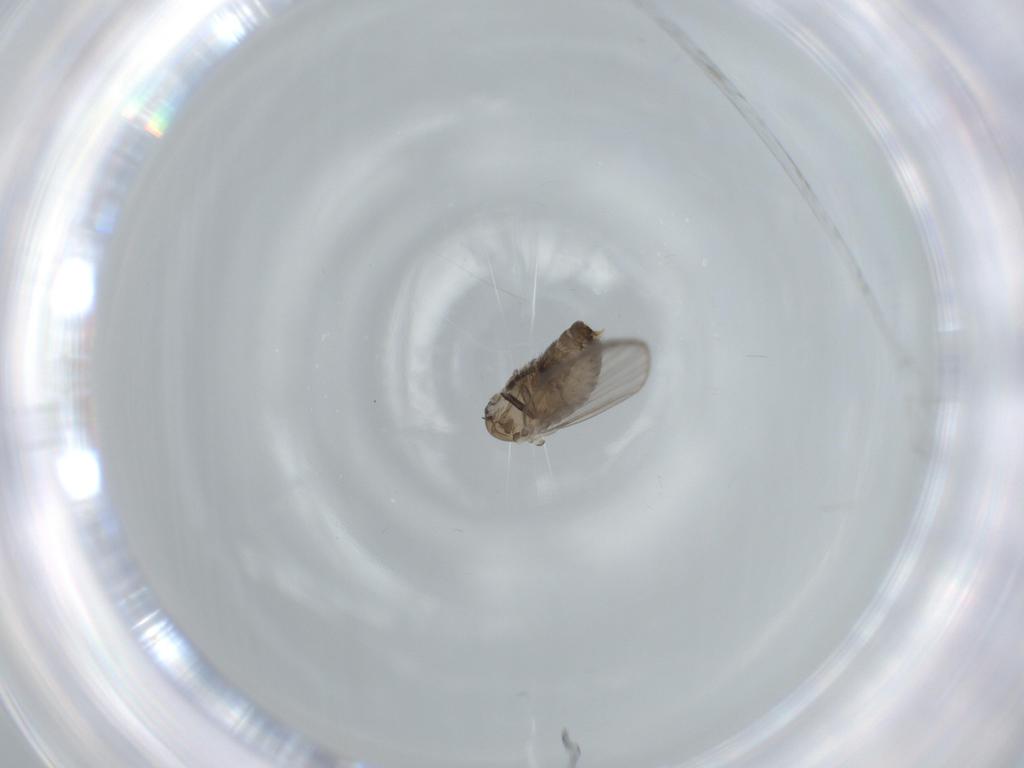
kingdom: Animalia
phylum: Arthropoda
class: Insecta
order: Diptera
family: Psychodidae
